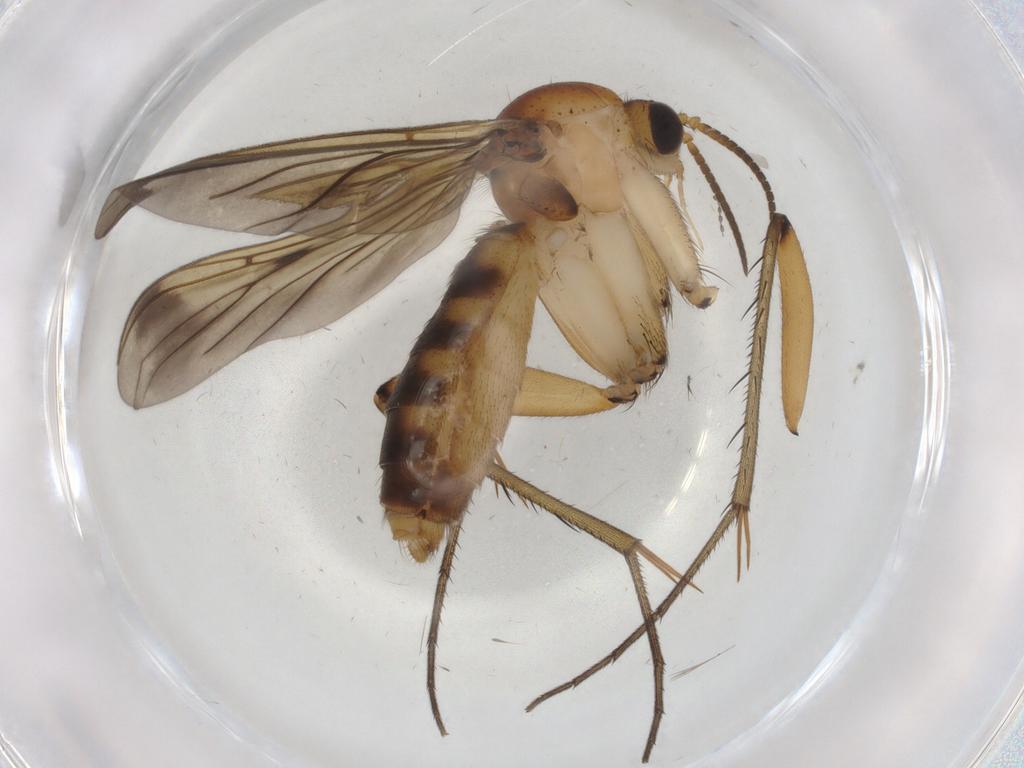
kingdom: Animalia
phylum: Arthropoda
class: Insecta
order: Diptera
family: Mycetophilidae
